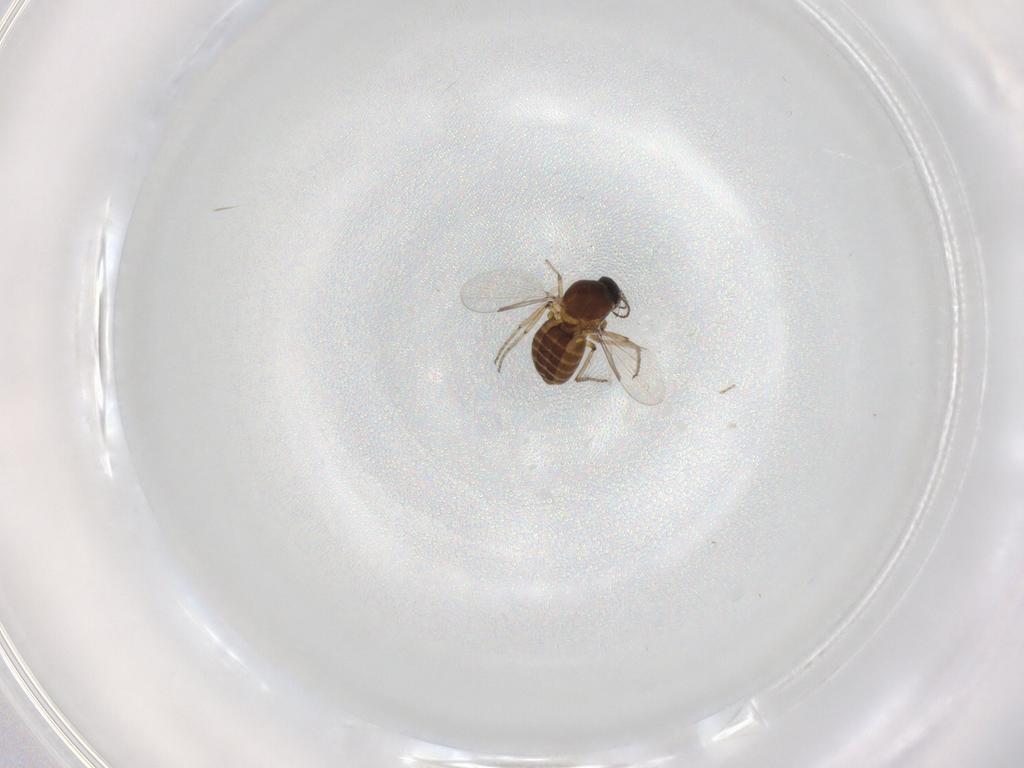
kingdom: Animalia
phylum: Arthropoda
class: Insecta
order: Diptera
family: Ceratopogonidae
